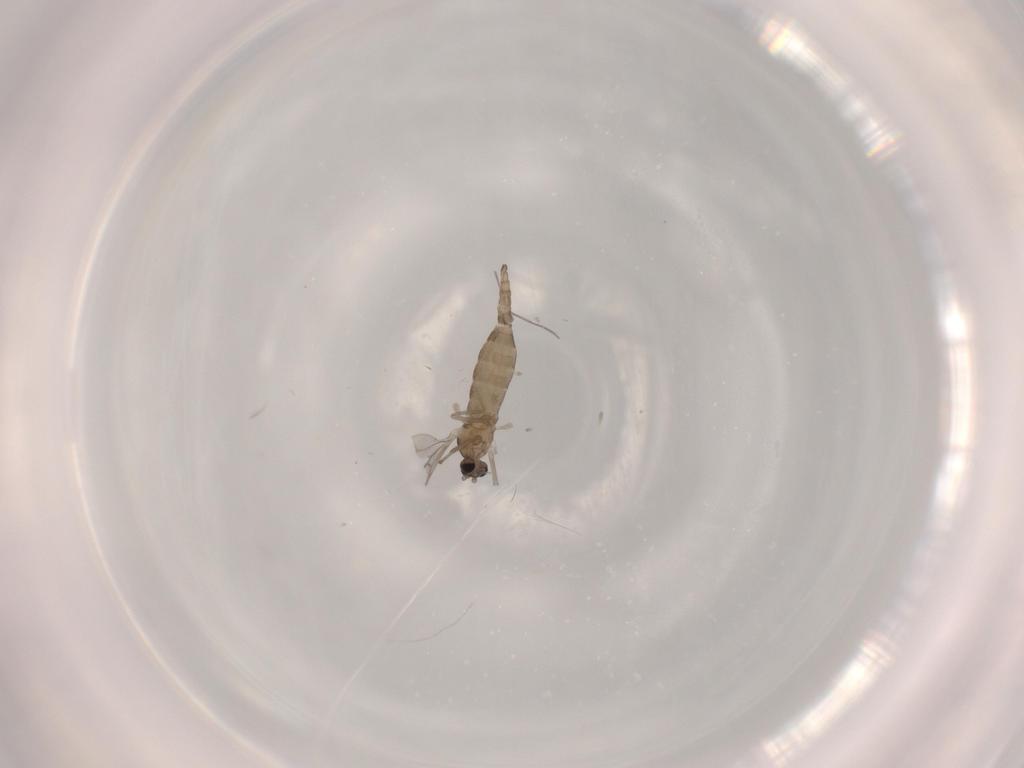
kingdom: Animalia
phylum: Arthropoda
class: Insecta
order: Diptera
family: Cecidomyiidae
